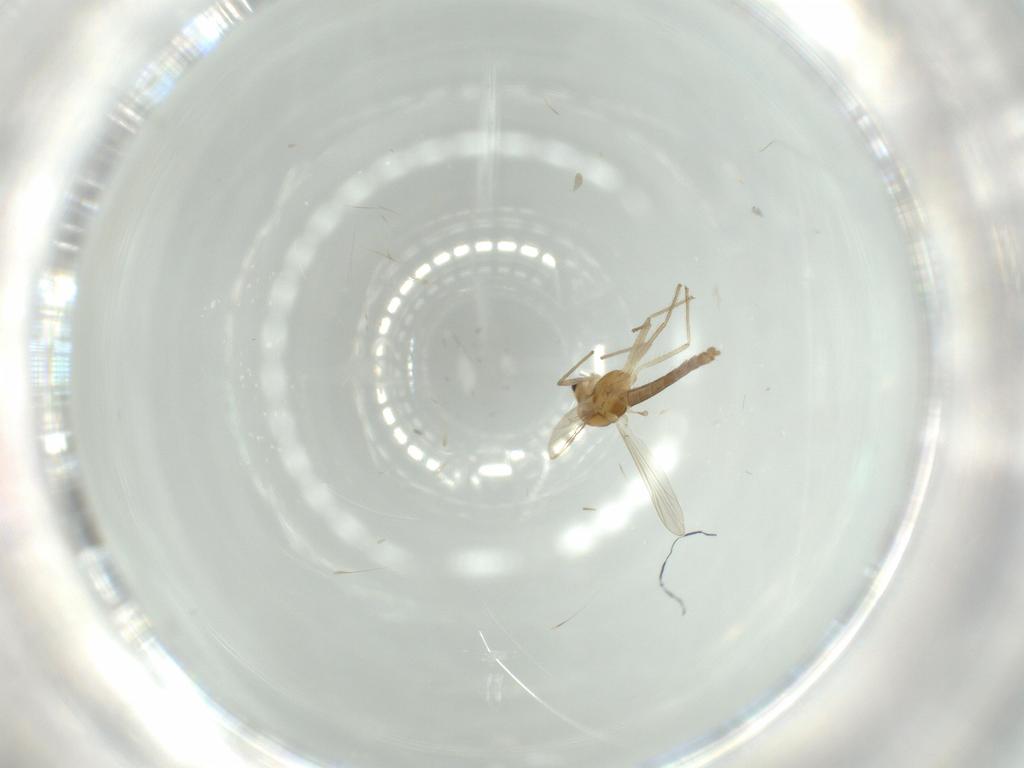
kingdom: Animalia
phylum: Arthropoda
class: Insecta
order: Diptera
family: Chironomidae
